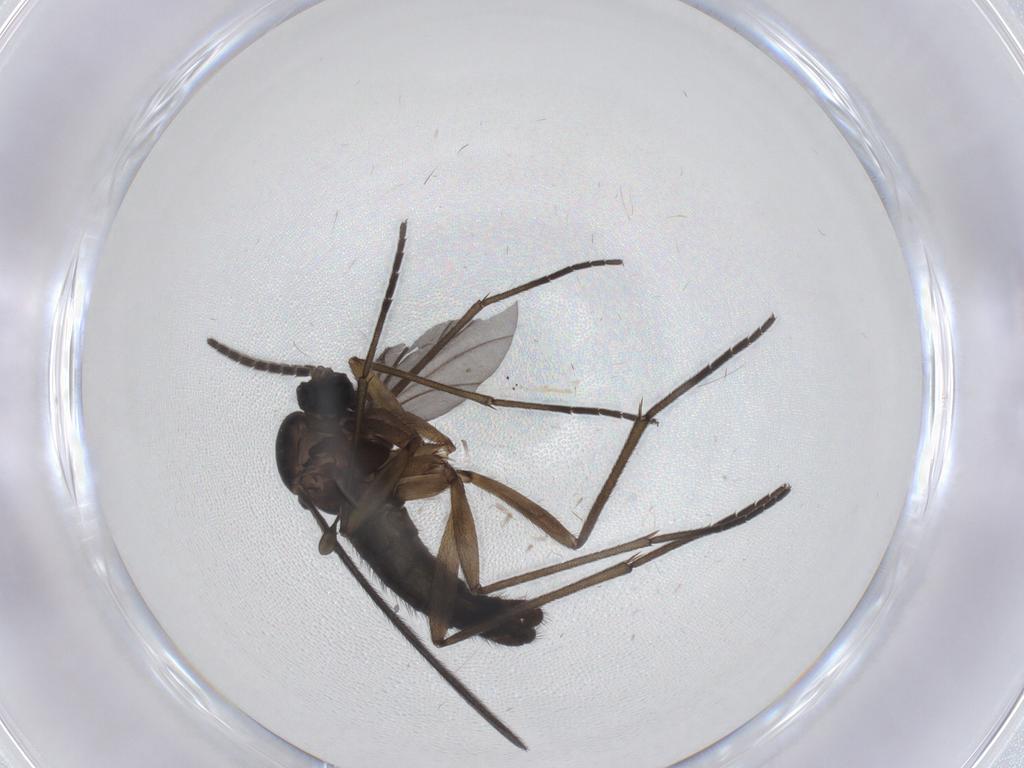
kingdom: Animalia
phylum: Arthropoda
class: Insecta
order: Diptera
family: Sciaridae
